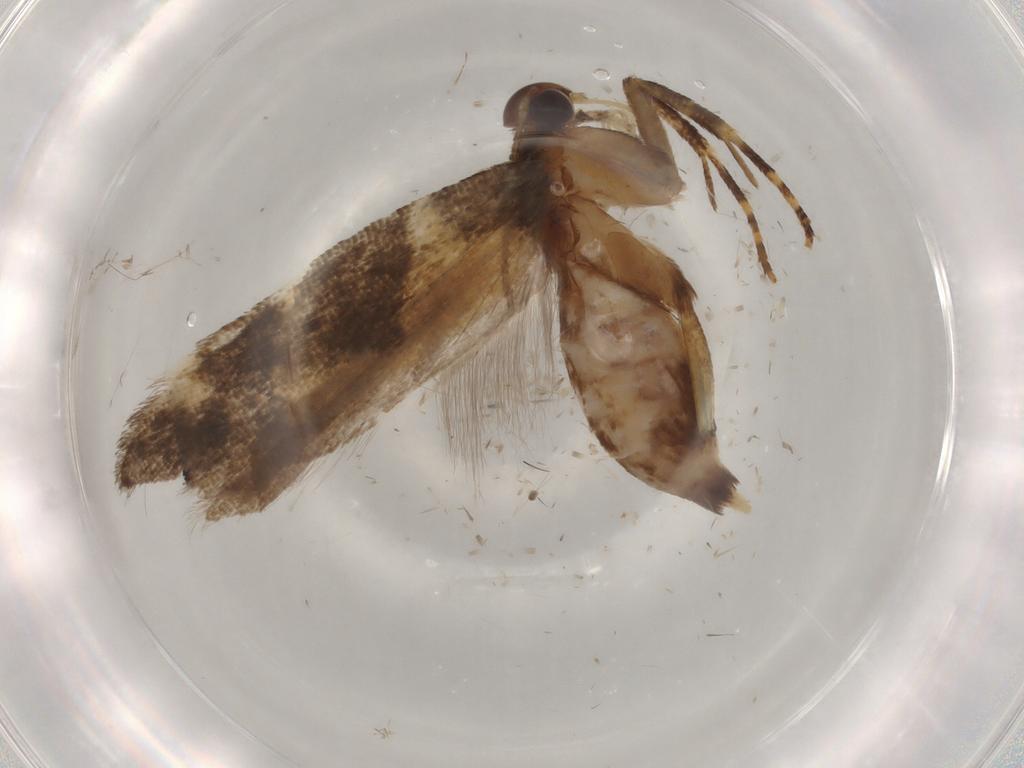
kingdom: Animalia
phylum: Arthropoda
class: Insecta
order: Lepidoptera
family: Gelechiidae
